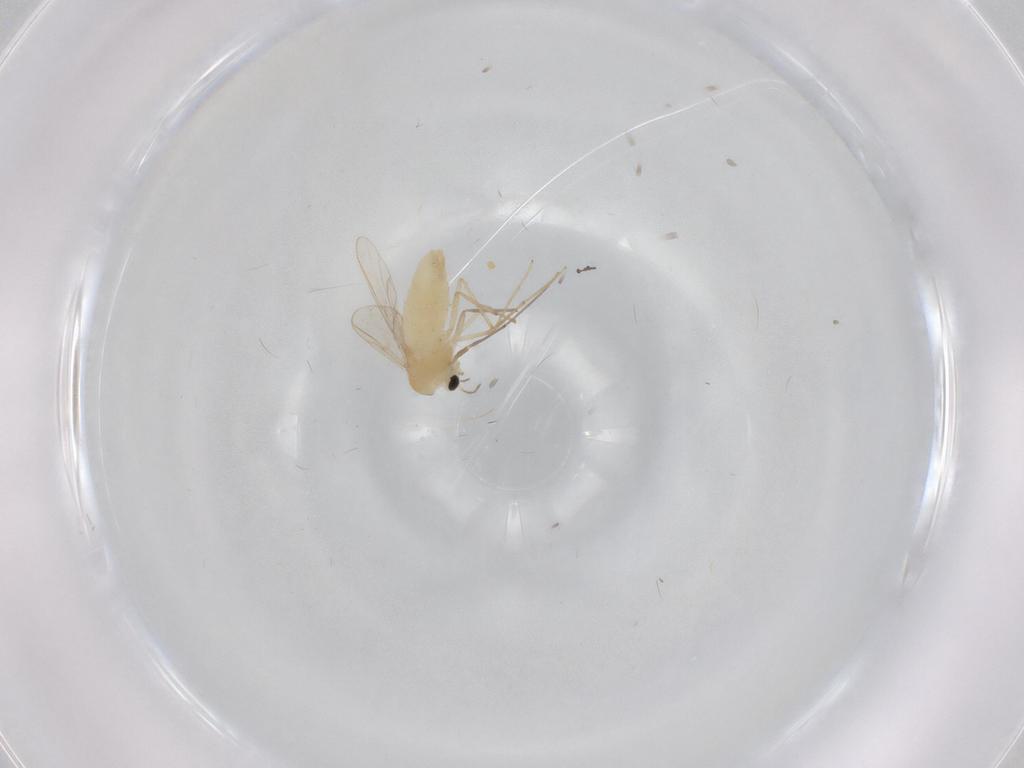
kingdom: Animalia
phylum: Arthropoda
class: Insecta
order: Diptera
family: Chironomidae
